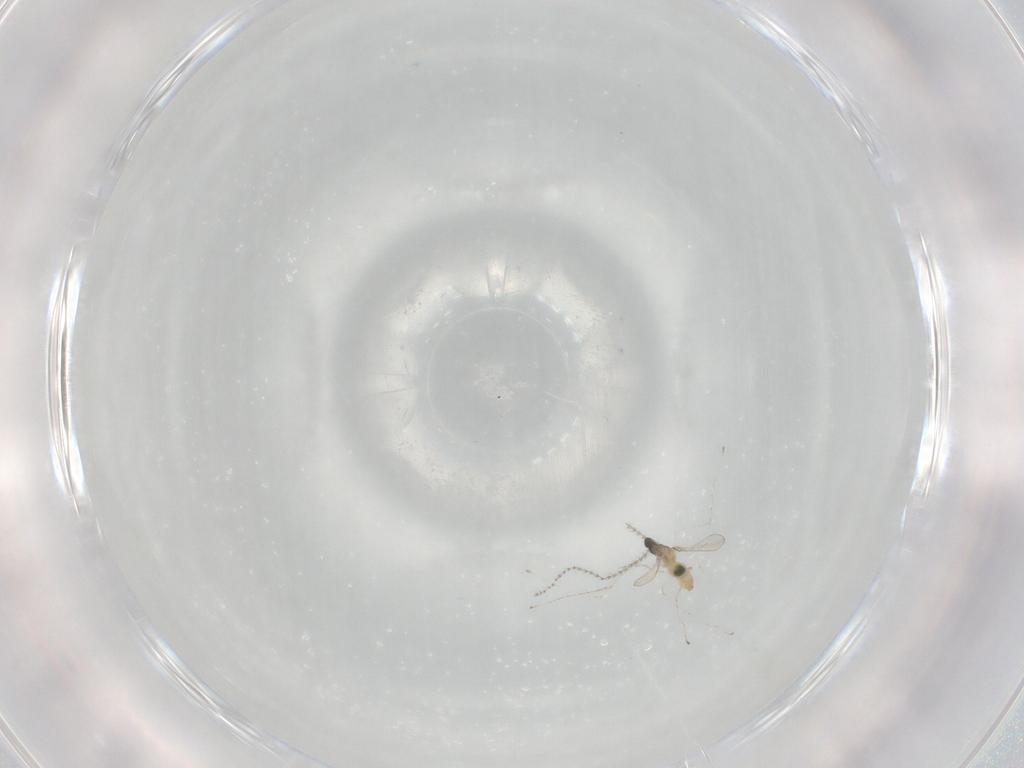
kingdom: Animalia
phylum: Arthropoda
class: Insecta
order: Diptera
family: Cecidomyiidae
